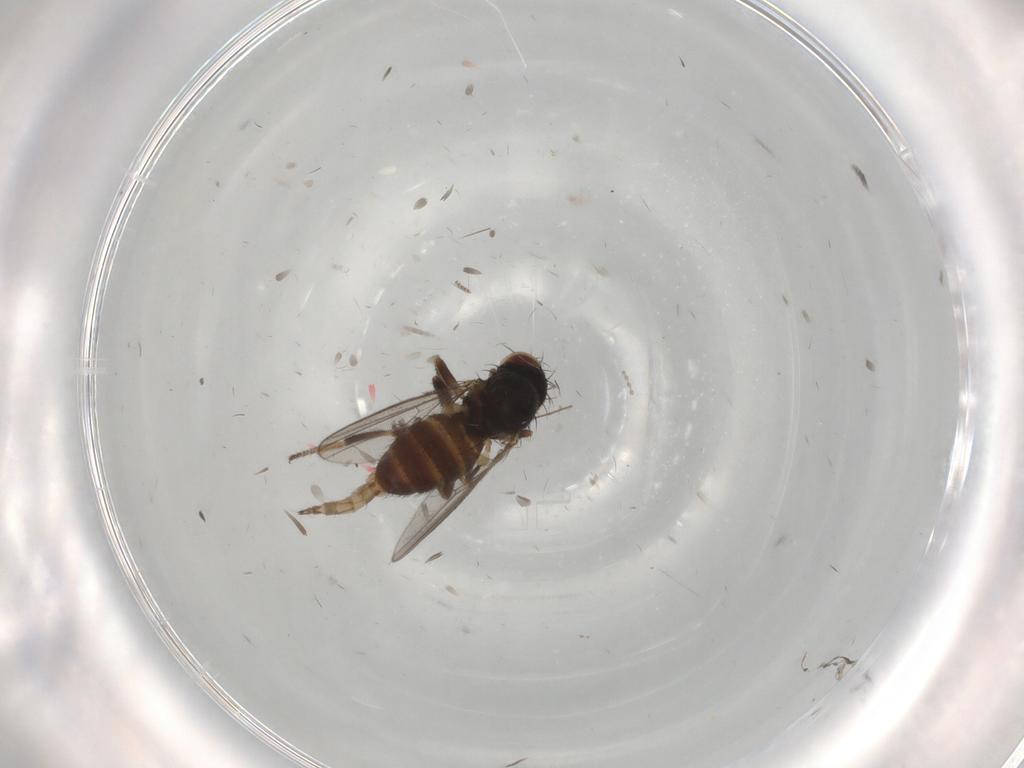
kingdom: Animalia
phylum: Arthropoda
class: Insecta
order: Diptera
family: Milichiidae
